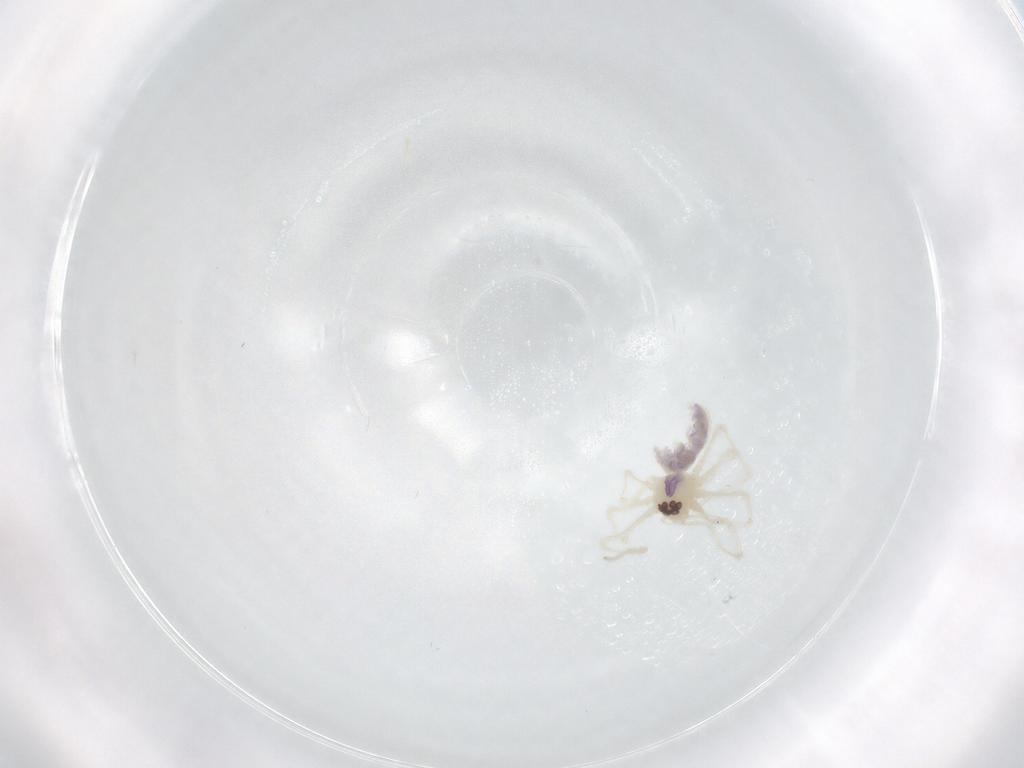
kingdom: Animalia
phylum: Arthropoda
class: Arachnida
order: Araneae
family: Pholcidae
